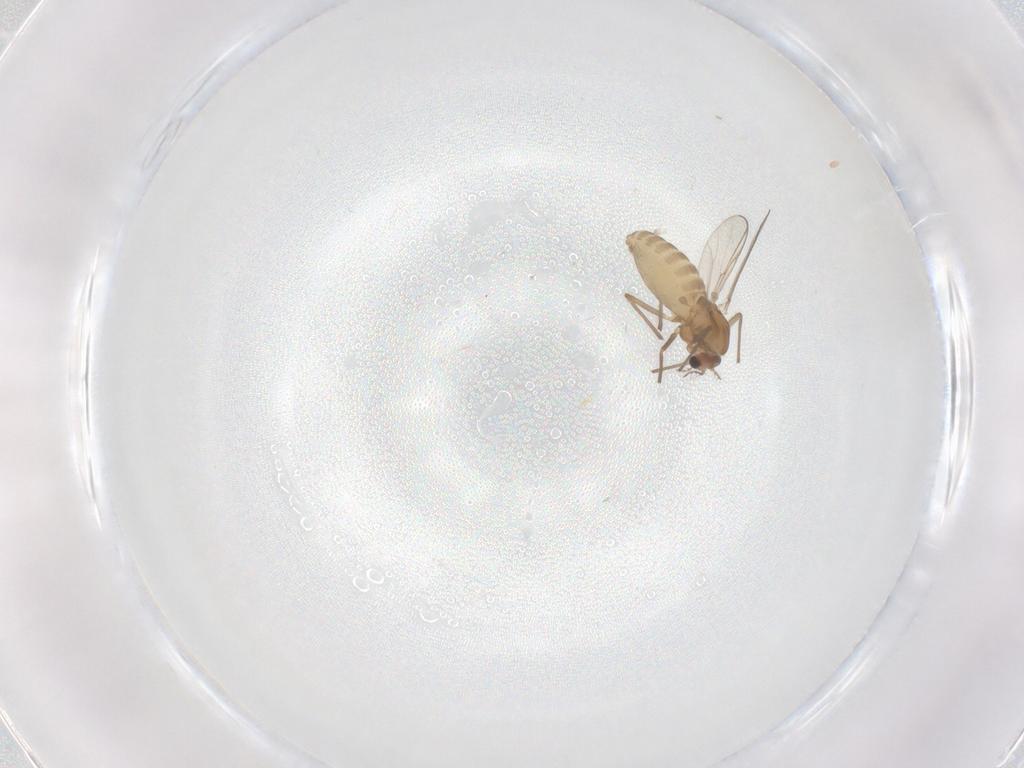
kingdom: Animalia
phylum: Arthropoda
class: Insecta
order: Diptera
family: Chironomidae
